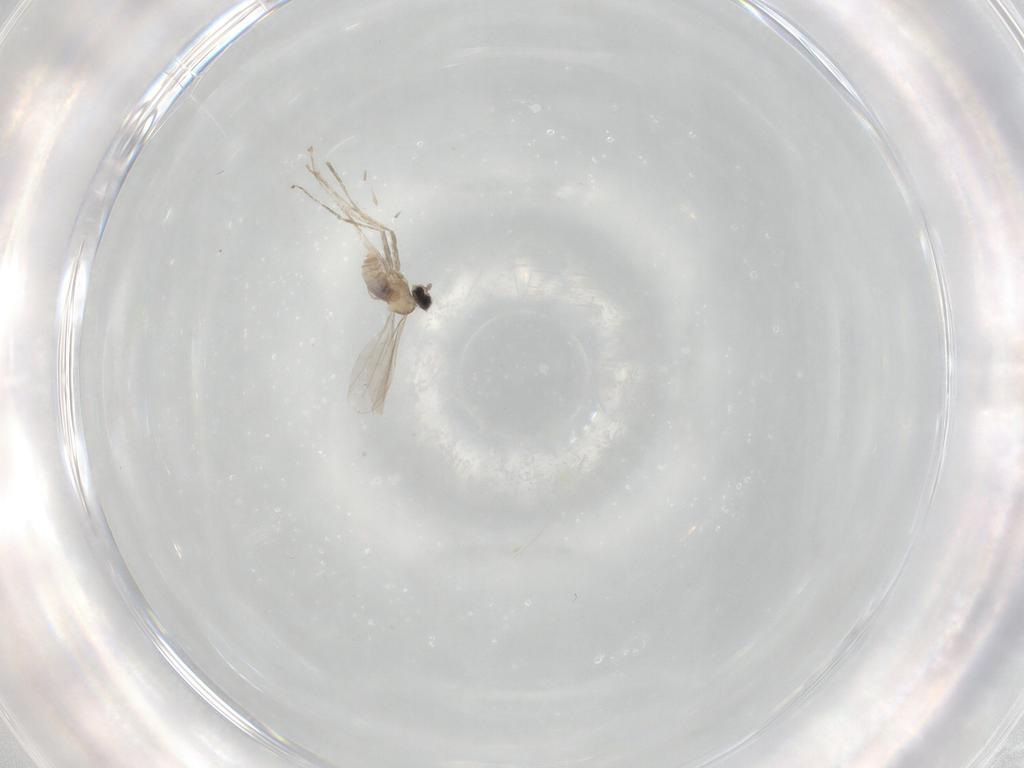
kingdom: Animalia
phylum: Arthropoda
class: Insecta
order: Diptera
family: Cecidomyiidae
